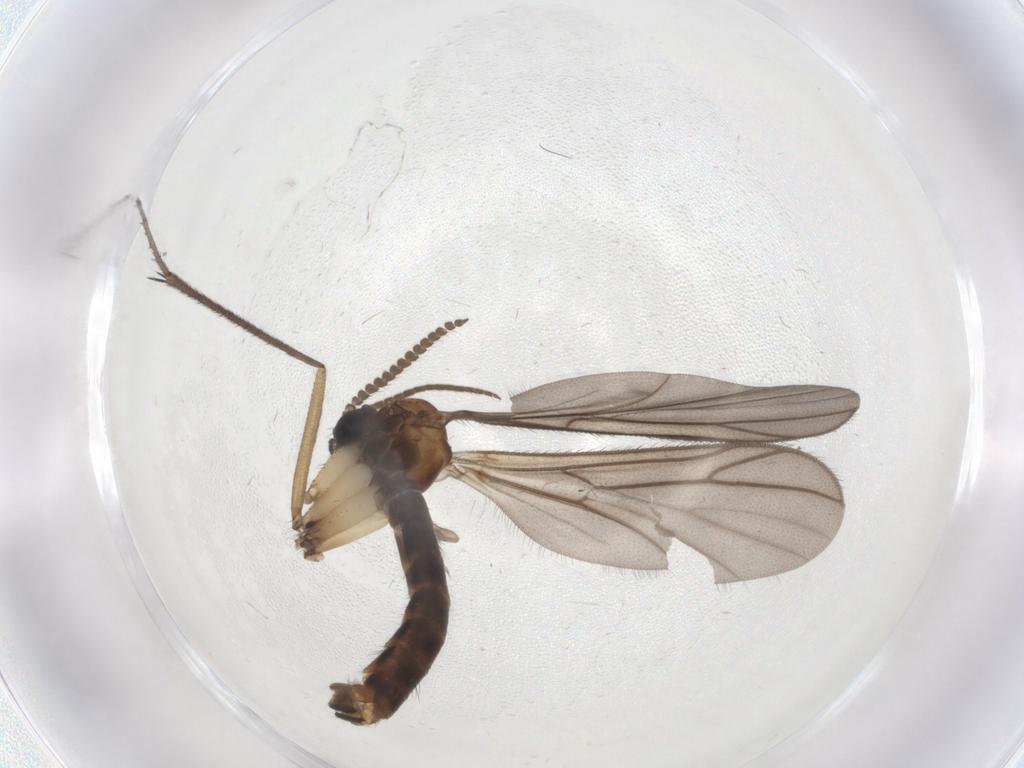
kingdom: Animalia
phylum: Arthropoda
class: Insecta
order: Diptera
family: Ditomyiidae
